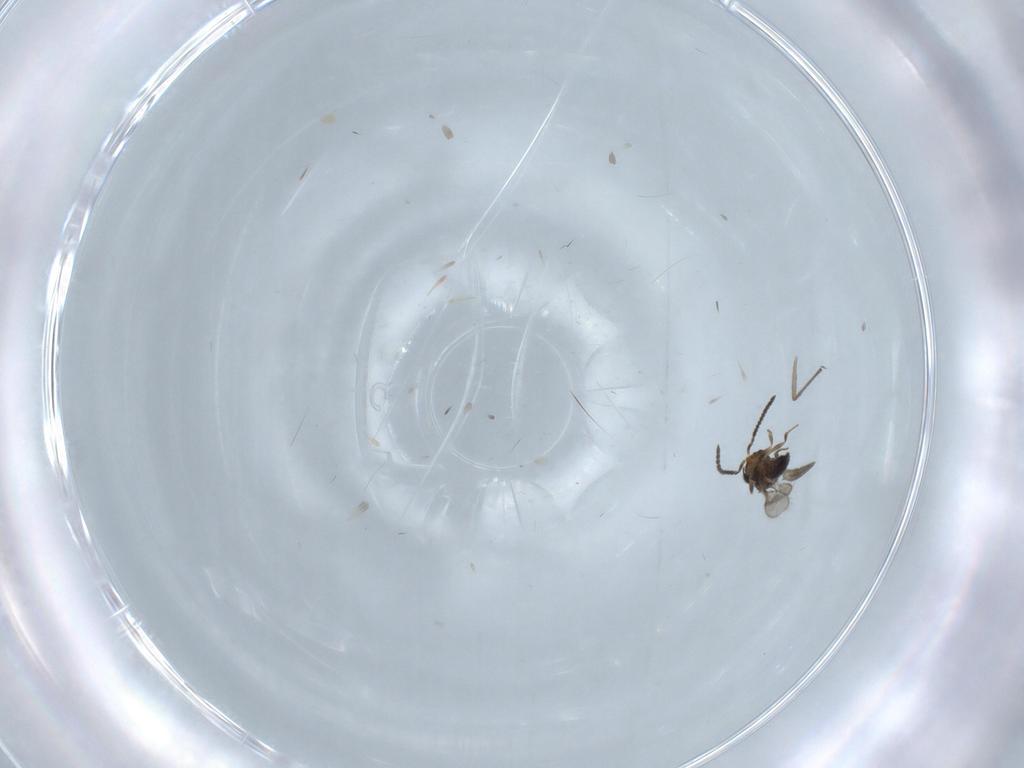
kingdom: Animalia
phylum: Arthropoda
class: Insecta
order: Hymenoptera
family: Scelionidae
